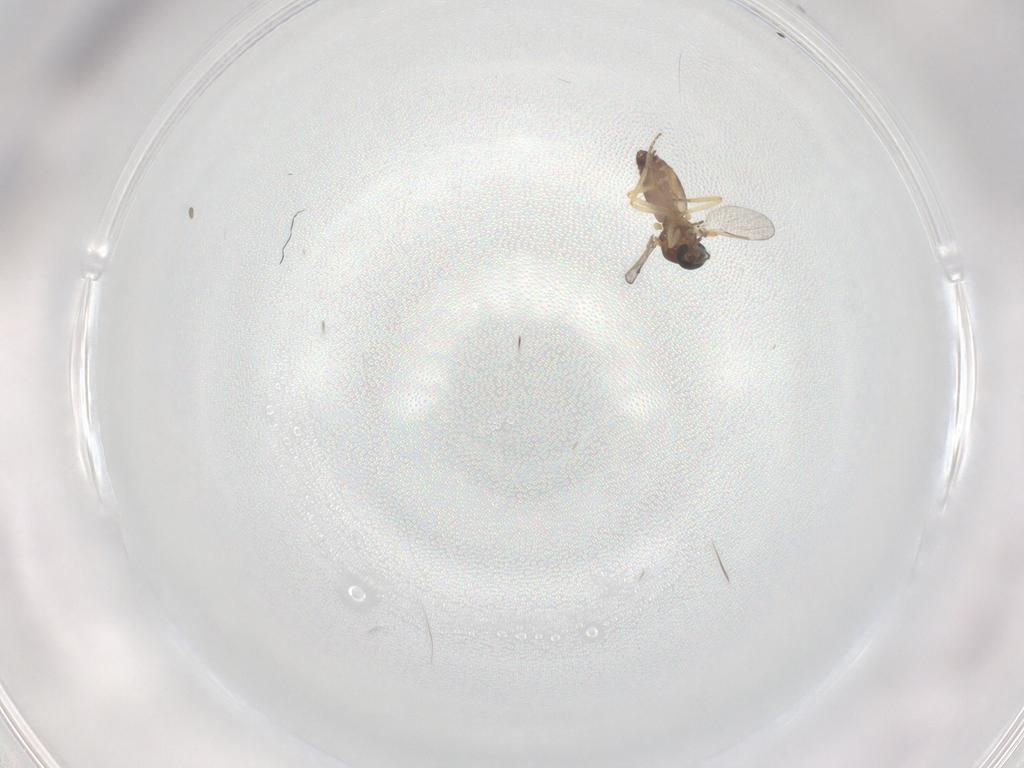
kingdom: Animalia
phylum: Arthropoda
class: Insecta
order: Diptera
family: Ceratopogonidae
